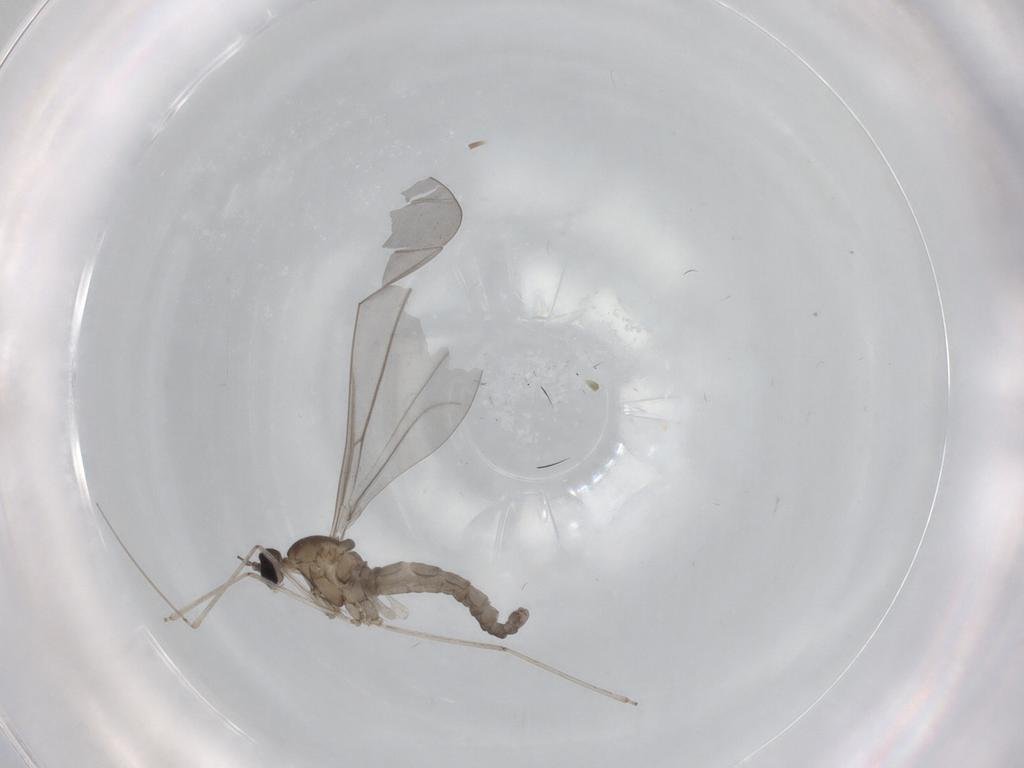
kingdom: Animalia
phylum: Arthropoda
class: Insecta
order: Diptera
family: Cecidomyiidae
